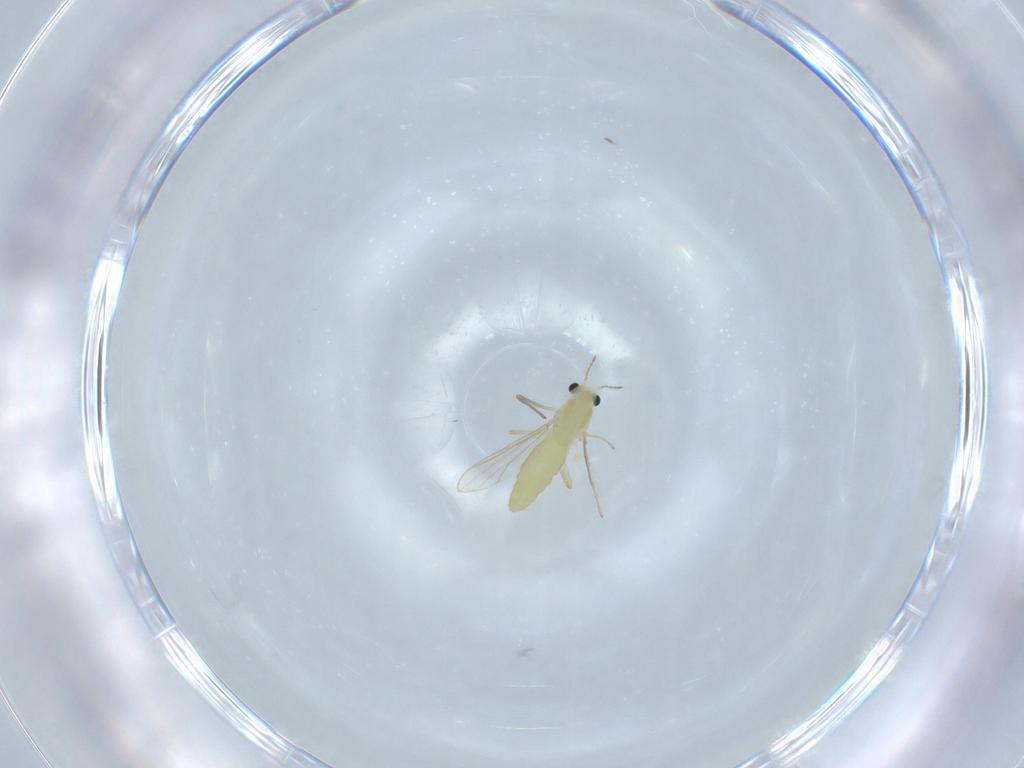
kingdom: Animalia
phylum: Arthropoda
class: Insecta
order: Diptera
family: Chironomidae
